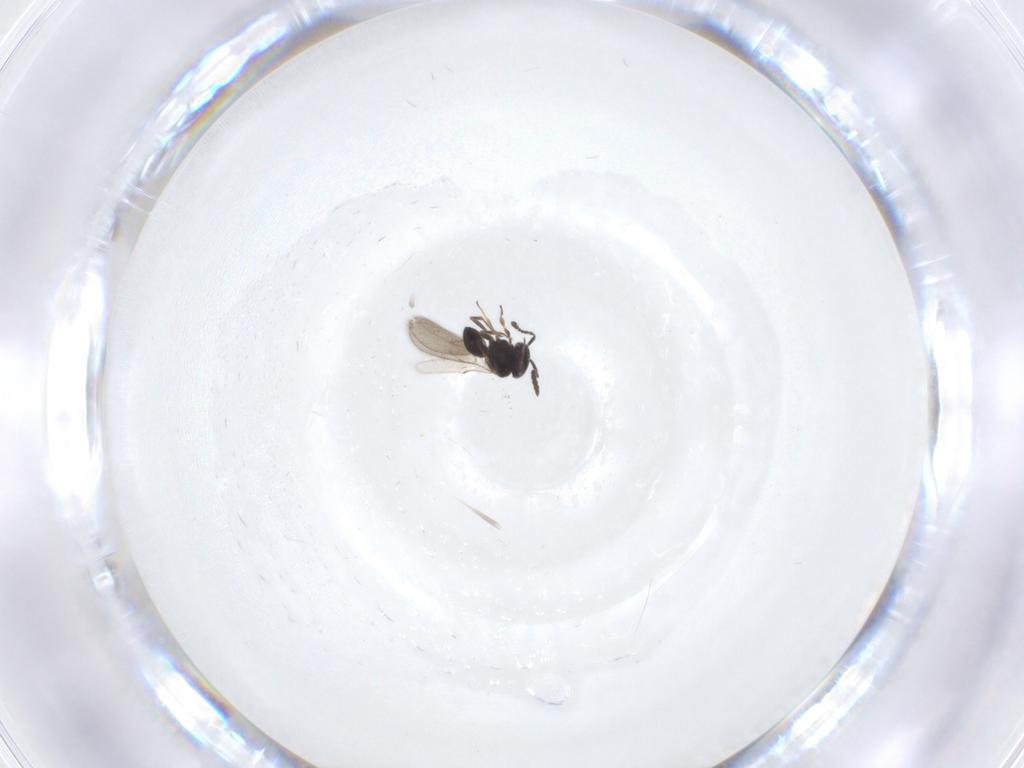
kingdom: Animalia
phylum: Arthropoda
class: Insecta
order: Hymenoptera
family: Scelionidae
